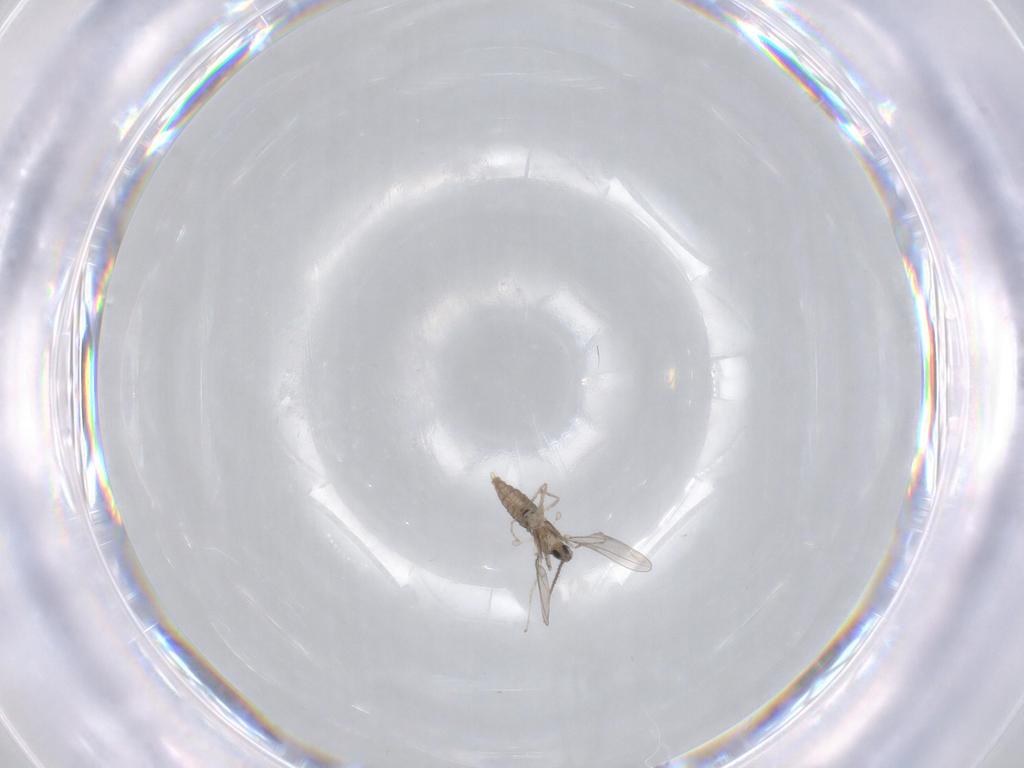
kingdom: Animalia
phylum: Arthropoda
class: Insecta
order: Diptera
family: Cecidomyiidae
